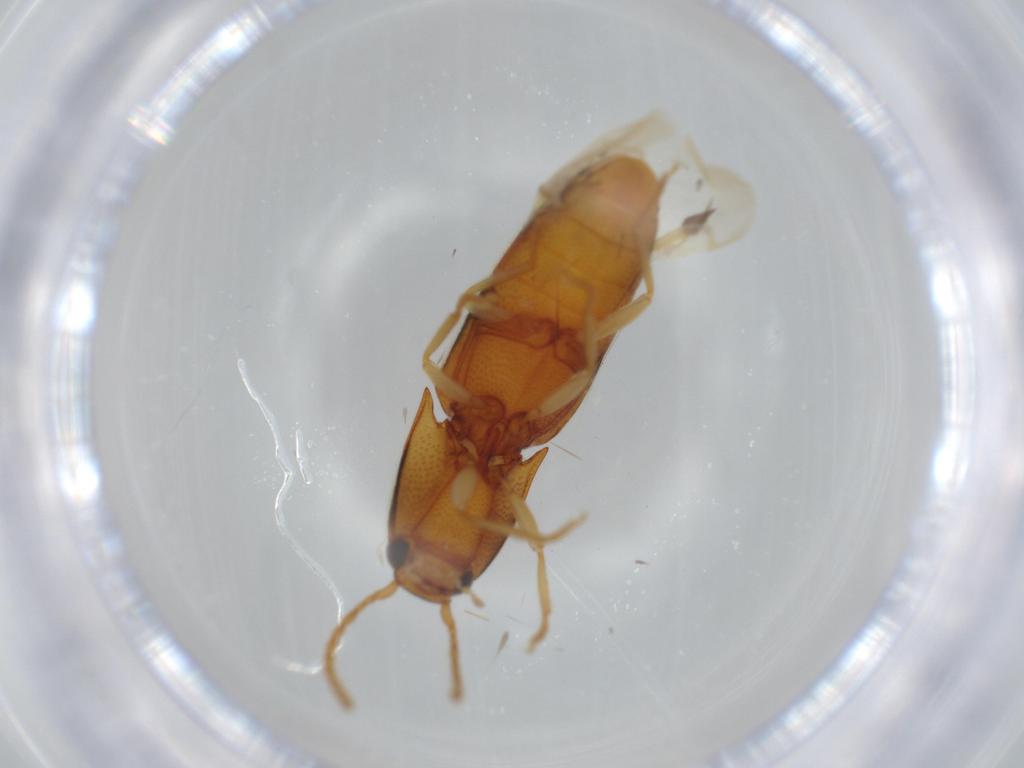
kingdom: Animalia
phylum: Arthropoda
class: Insecta
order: Coleoptera
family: Elateridae
